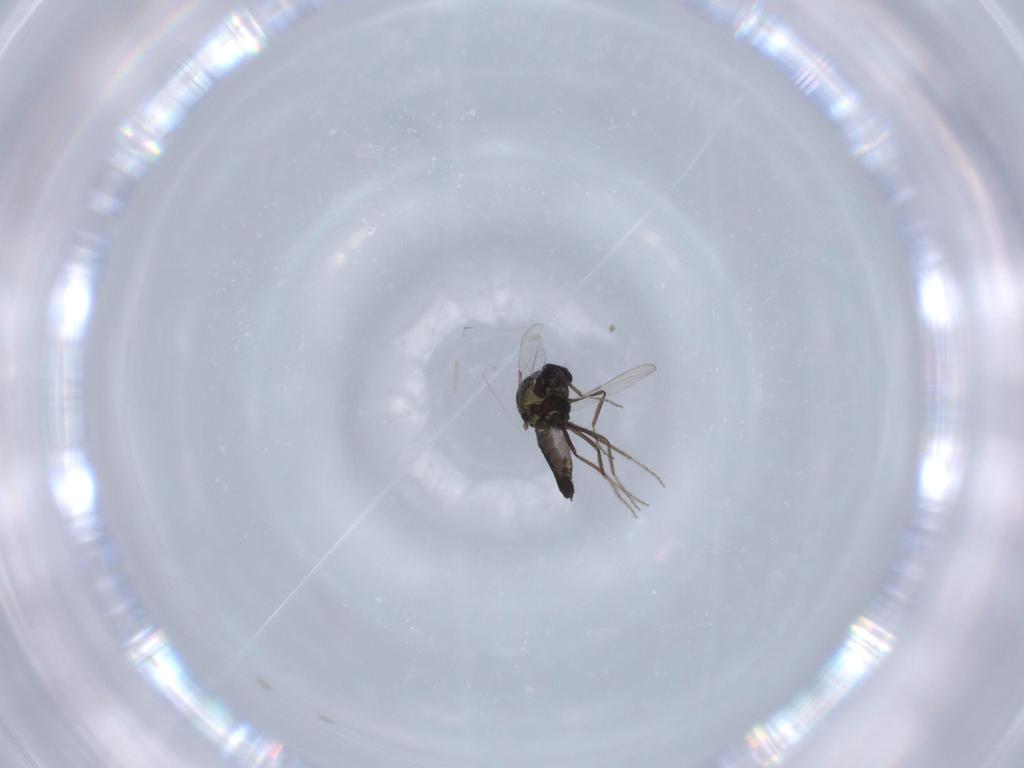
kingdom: Animalia
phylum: Arthropoda
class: Insecta
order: Diptera
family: Ceratopogonidae
